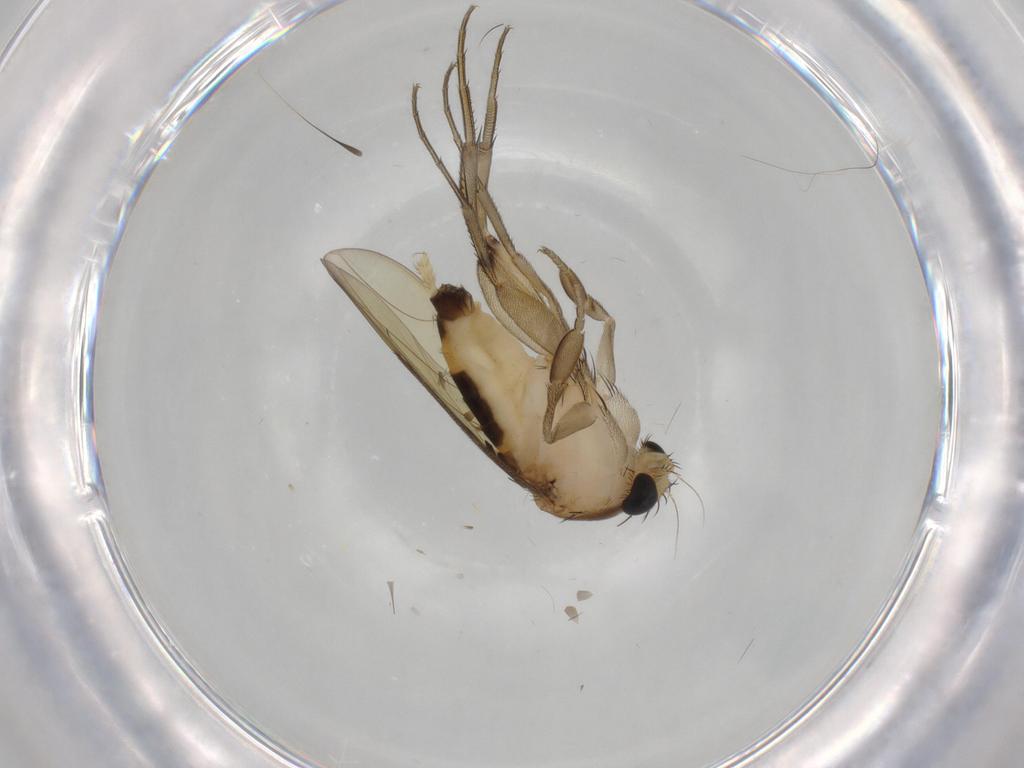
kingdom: Animalia
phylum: Arthropoda
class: Insecta
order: Diptera
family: Phoridae
